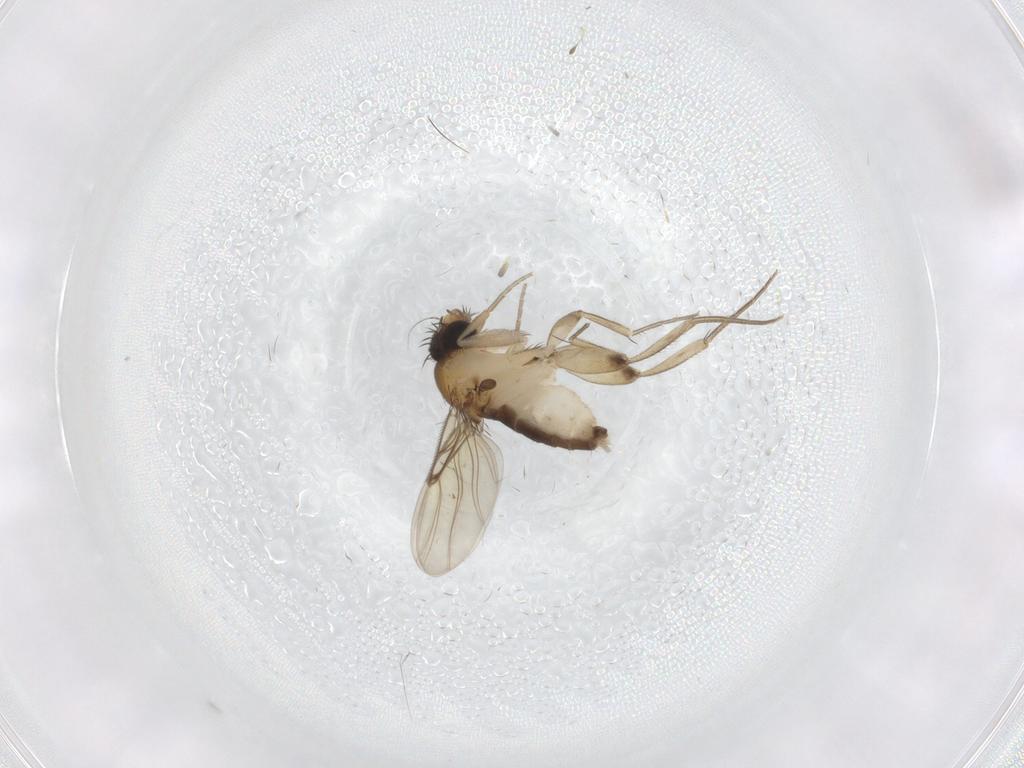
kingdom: Animalia
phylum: Arthropoda
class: Insecta
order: Diptera
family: Phoridae
